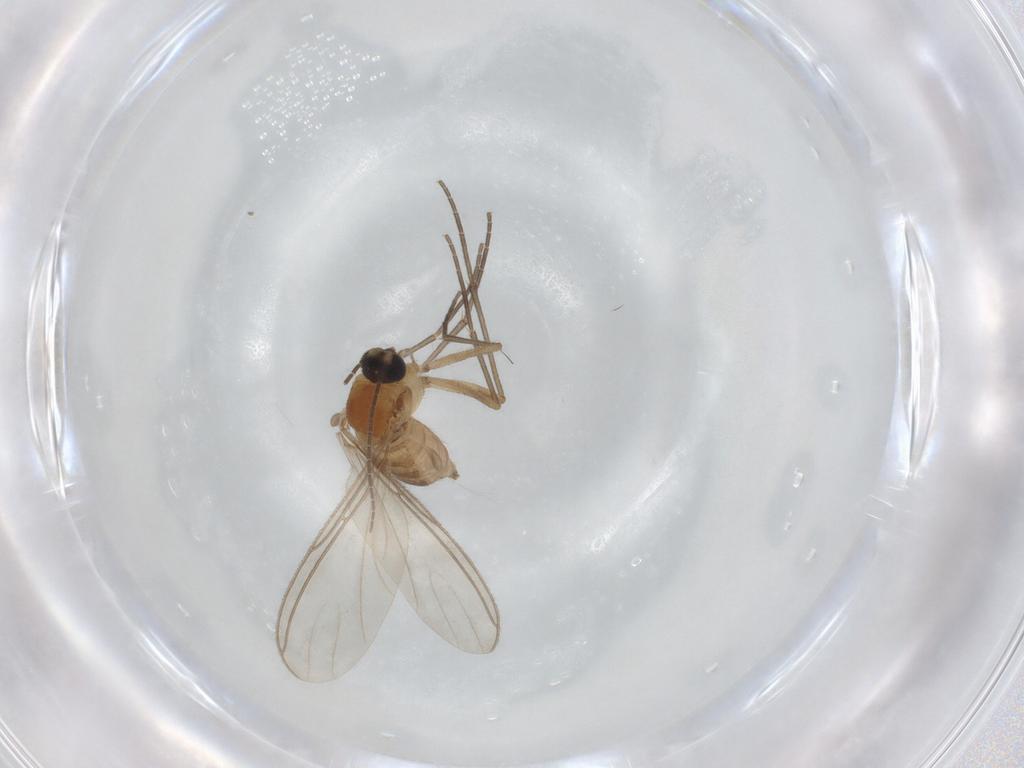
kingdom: Animalia
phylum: Arthropoda
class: Insecta
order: Diptera
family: Sciaridae
